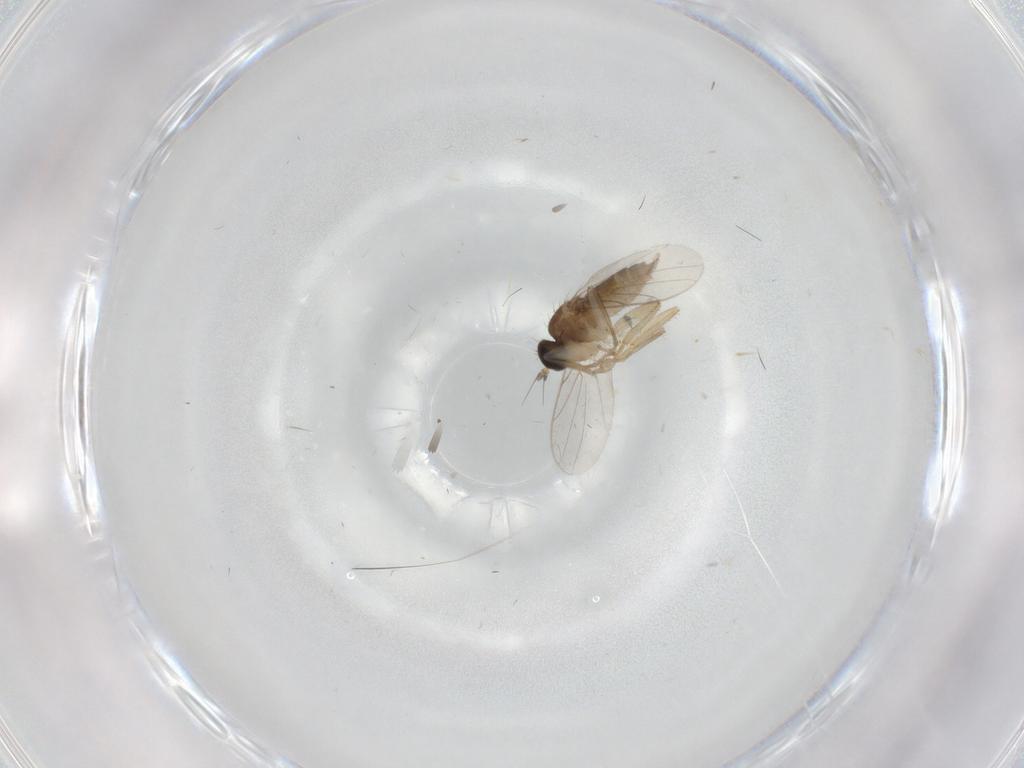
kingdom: Animalia
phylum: Arthropoda
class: Insecta
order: Diptera
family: Hybotidae
